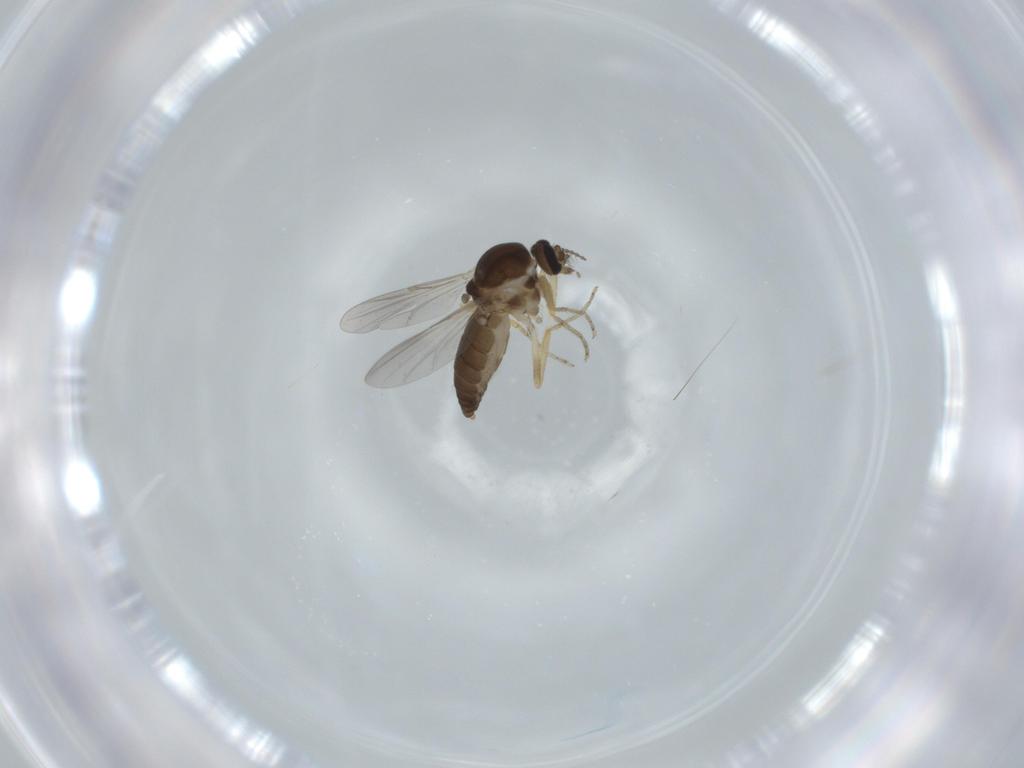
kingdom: Animalia
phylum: Arthropoda
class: Insecta
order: Diptera
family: Ceratopogonidae
